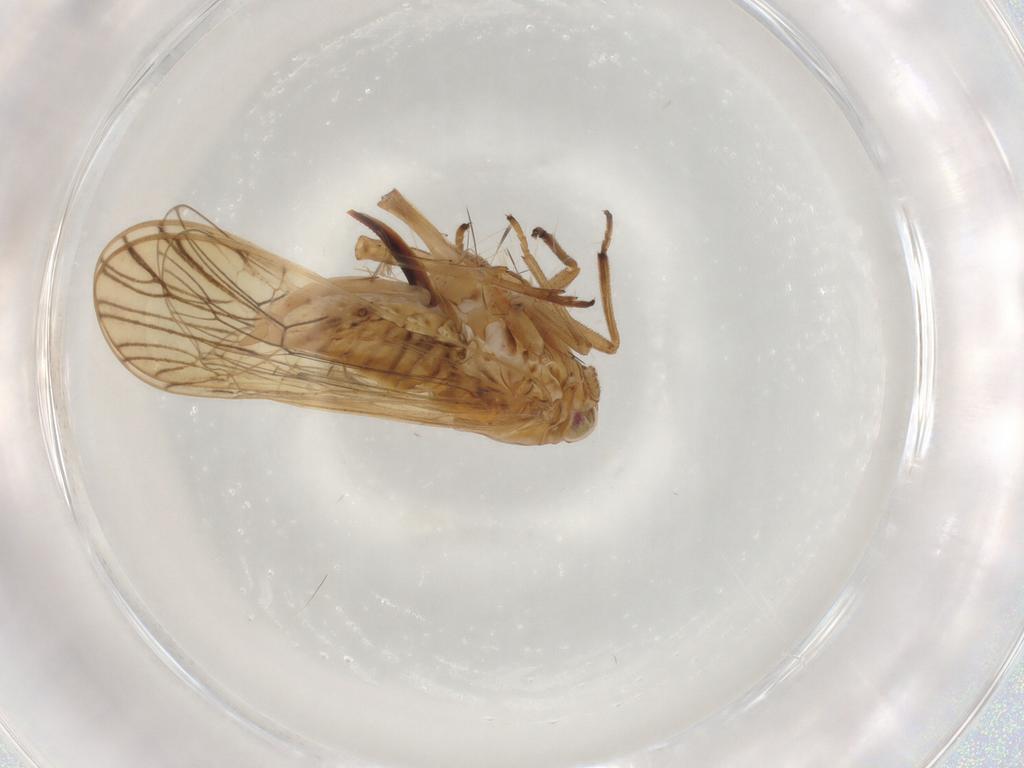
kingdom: Animalia
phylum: Arthropoda
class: Insecta
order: Hemiptera
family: Delphacidae
